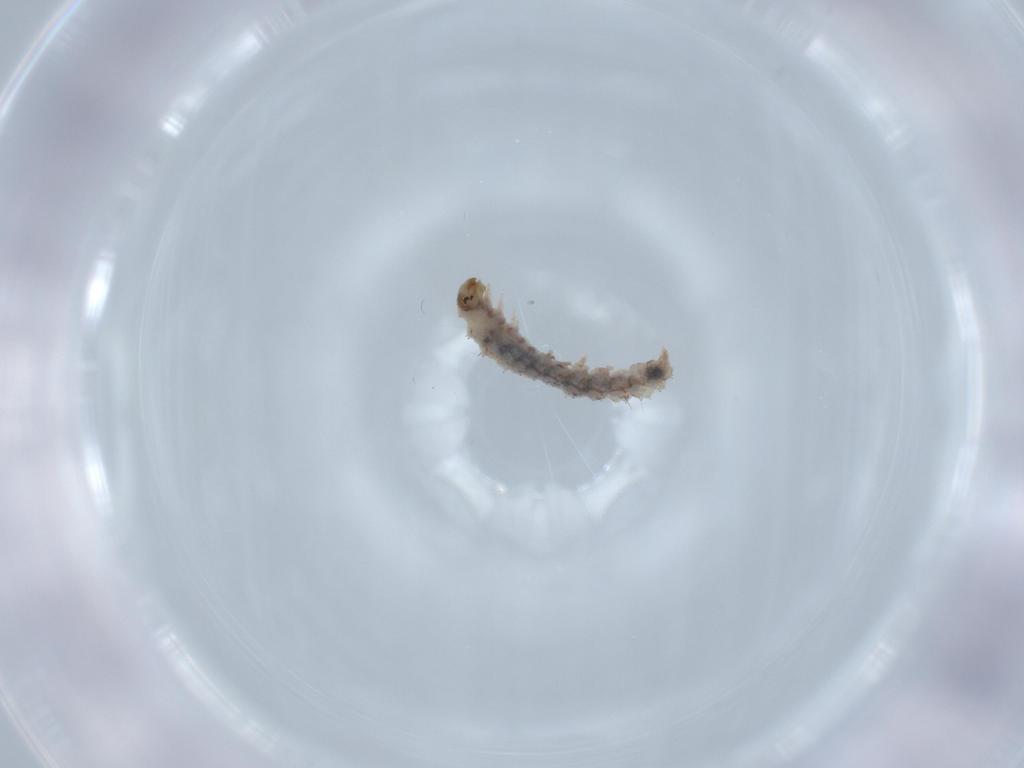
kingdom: Animalia
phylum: Arthropoda
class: Insecta
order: Lepidoptera
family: Erebidae
